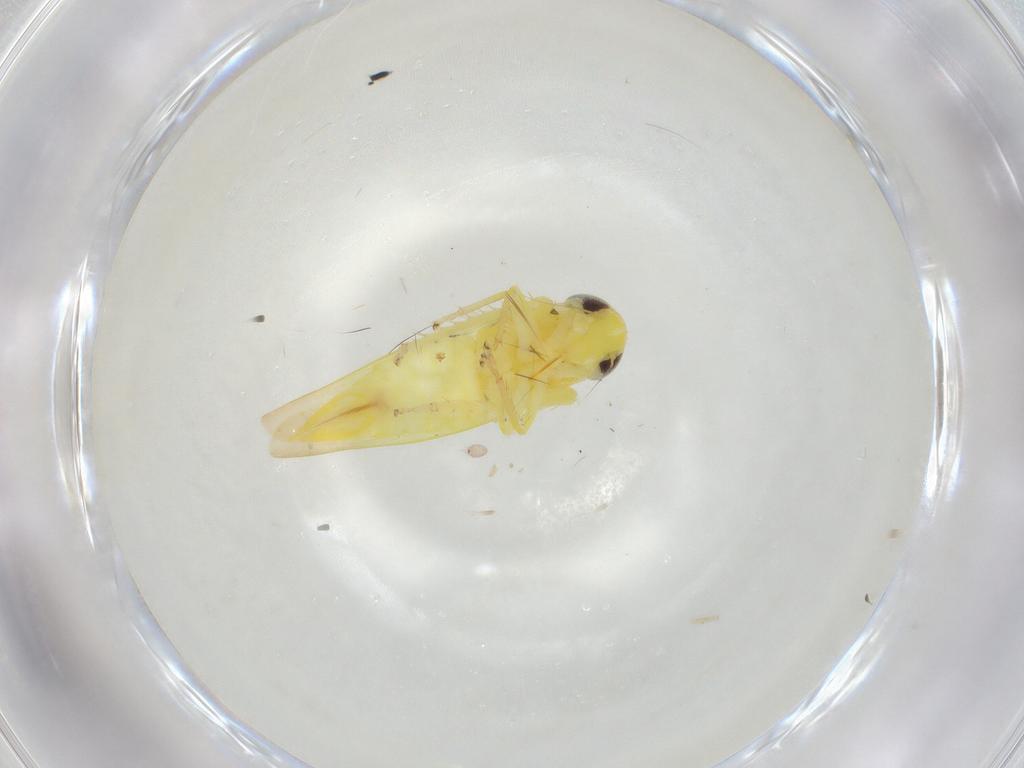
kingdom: Animalia
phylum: Arthropoda
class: Insecta
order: Hemiptera
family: Cicadellidae
